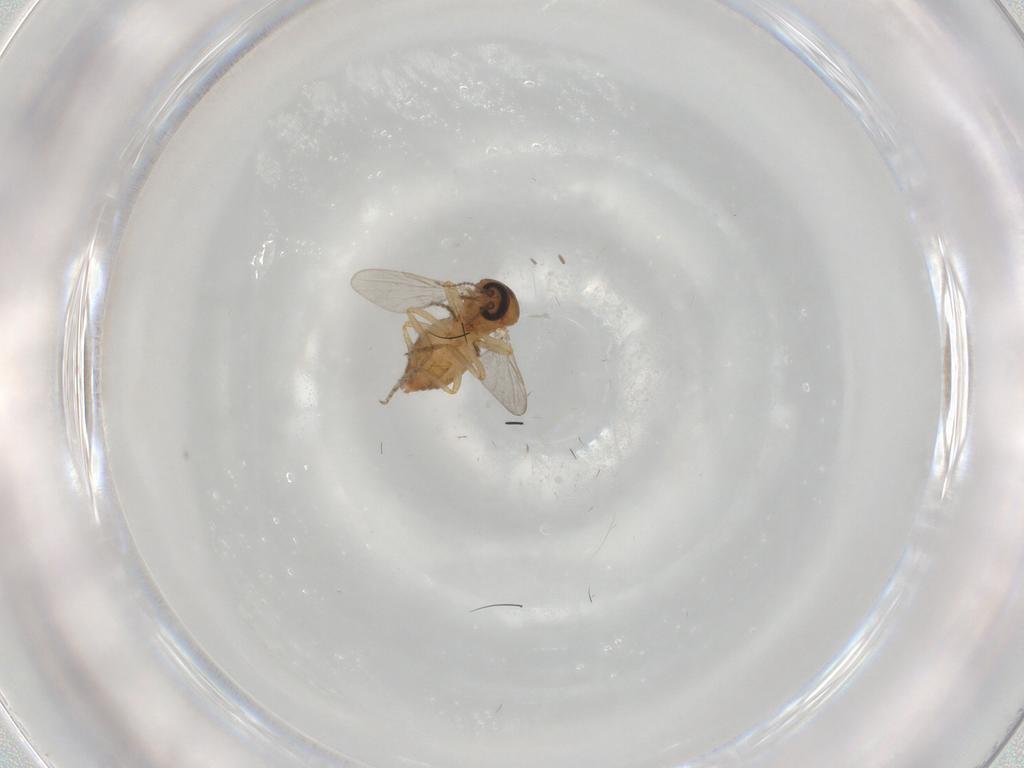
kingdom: Animalia
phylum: Arthropoda
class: Insecta
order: Diptera
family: Ceratopogonidae
